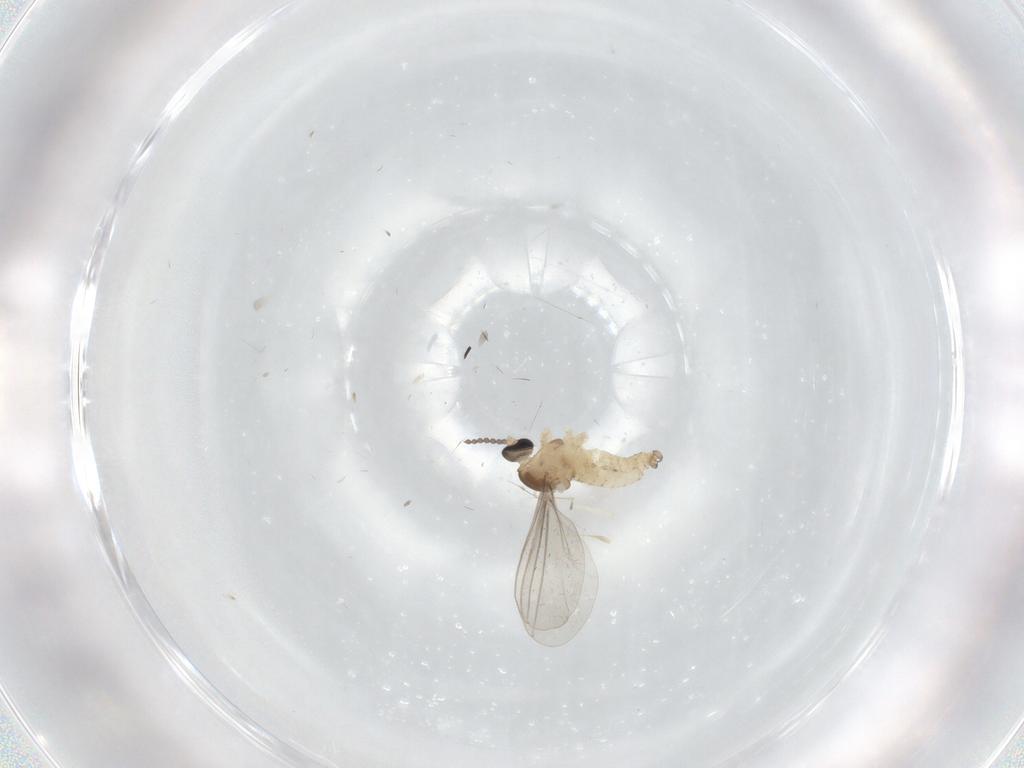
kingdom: Animalia
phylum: Arthropoda
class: Insecta
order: Diptera
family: Cecidomyiidae
